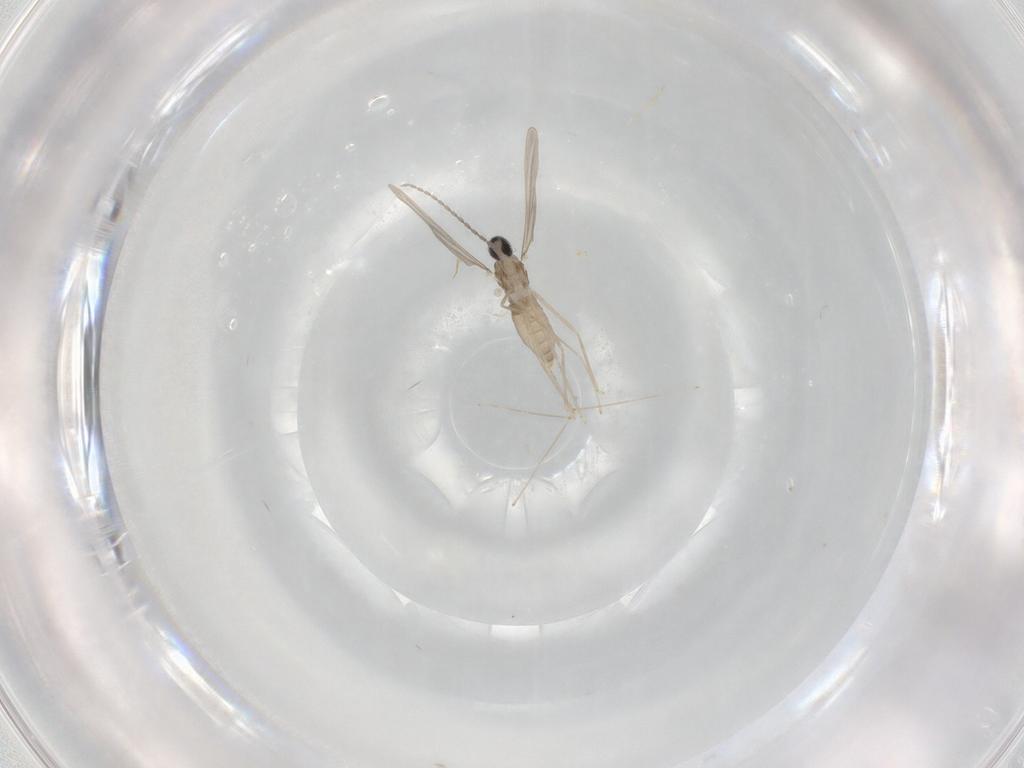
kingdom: Animalia
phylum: Arthropoda
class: Insecta
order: Diptera
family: Cecidomyiidae
